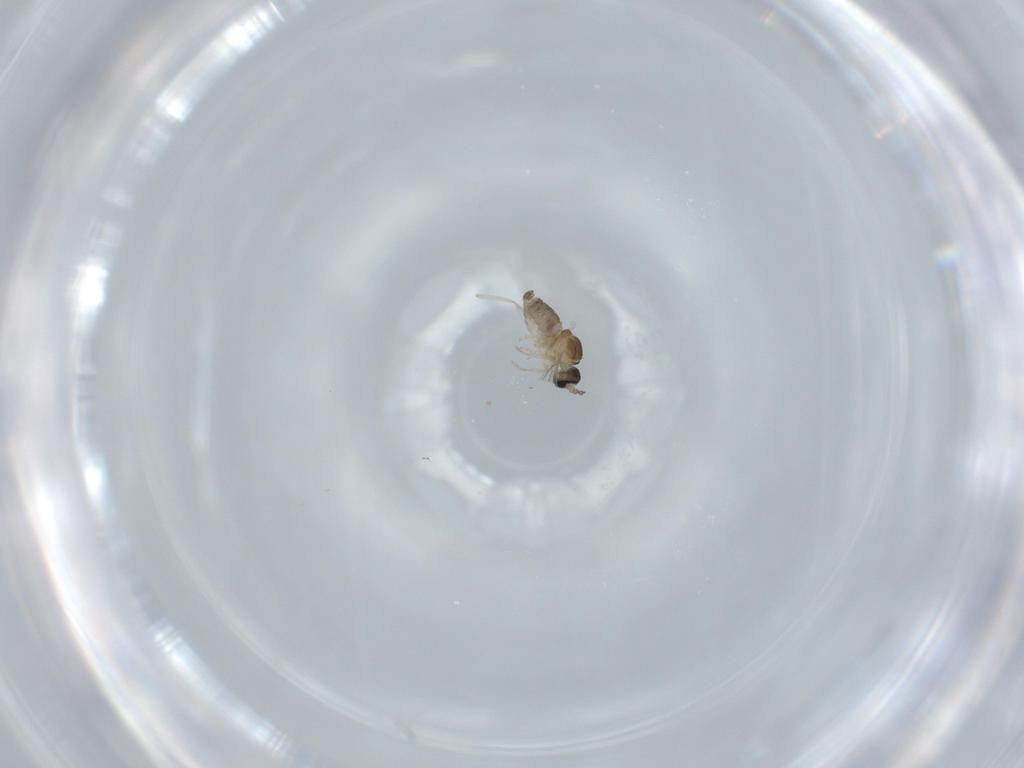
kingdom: Animalia
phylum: Arthropoda
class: Insecta
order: Diptera
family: Cecidomyiidae
